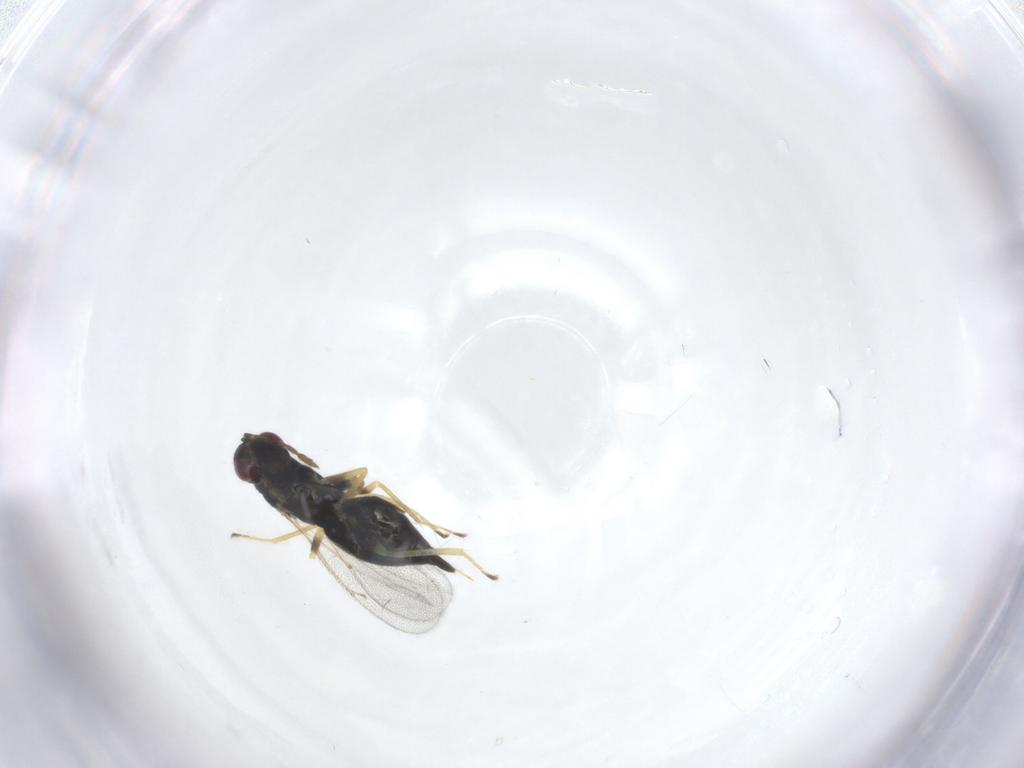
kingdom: Animalia
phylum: Arthropoda
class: Insecta
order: Hymenoptera
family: Eulophidae
